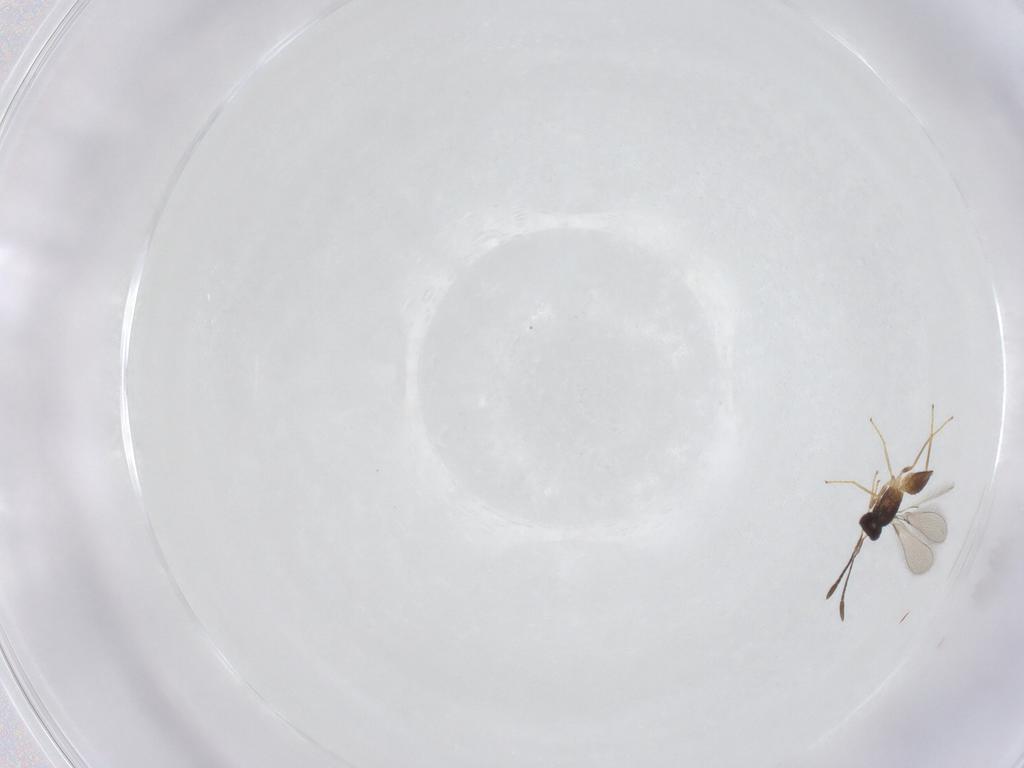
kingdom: Animalia
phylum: Arthropoda
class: Insecta
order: Hymenoptera
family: Mymaridae
